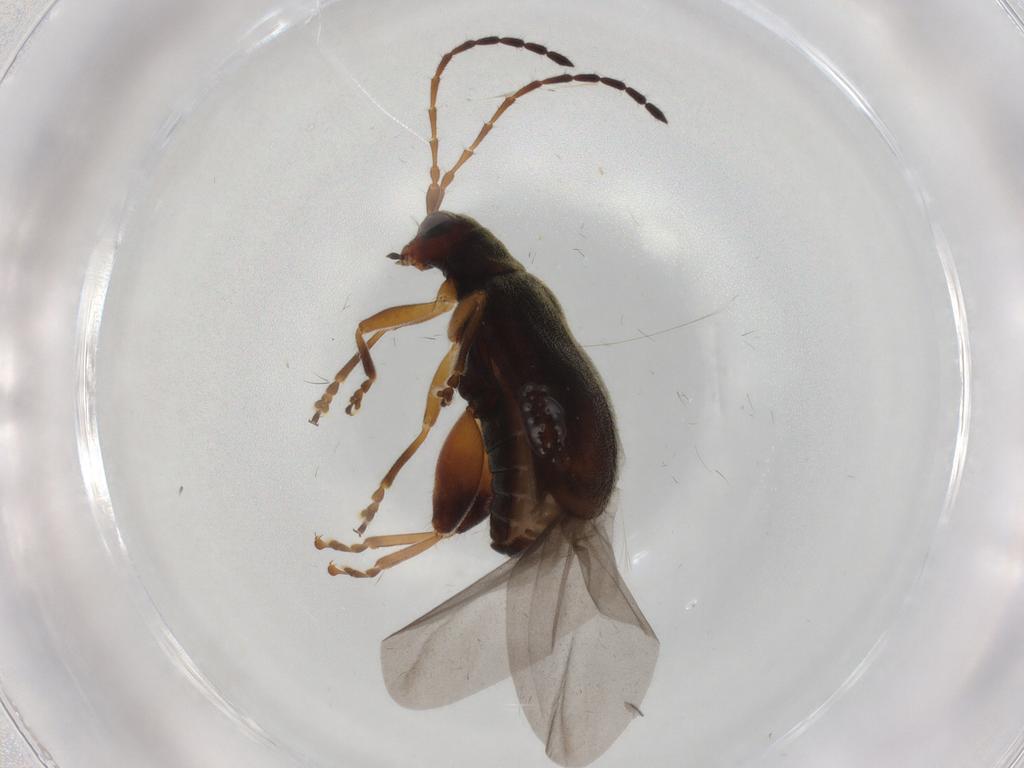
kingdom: Animalia
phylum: Arthropoda
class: Insecta
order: Coleoptera
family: Chrysomelidae
